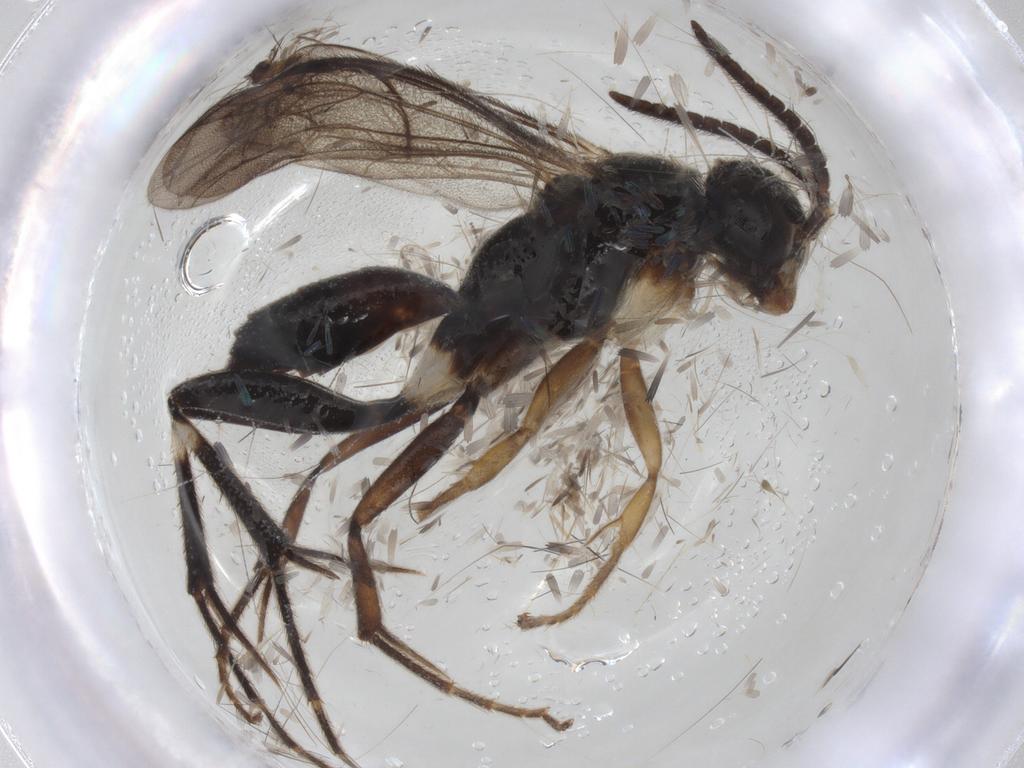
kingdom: Animalia
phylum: Arthropoda
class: Insecta
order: Hymenoptera
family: Pompilidae
